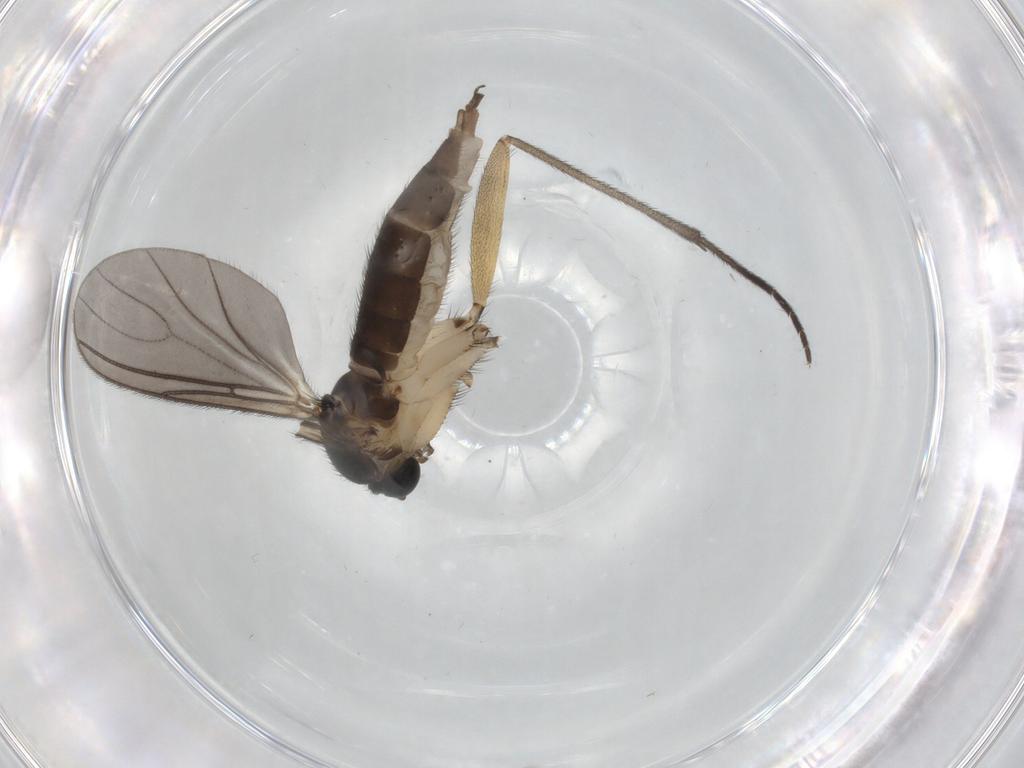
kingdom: Animalia
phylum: Arthropoda
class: Insecta
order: Diptera
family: Sciaridae
